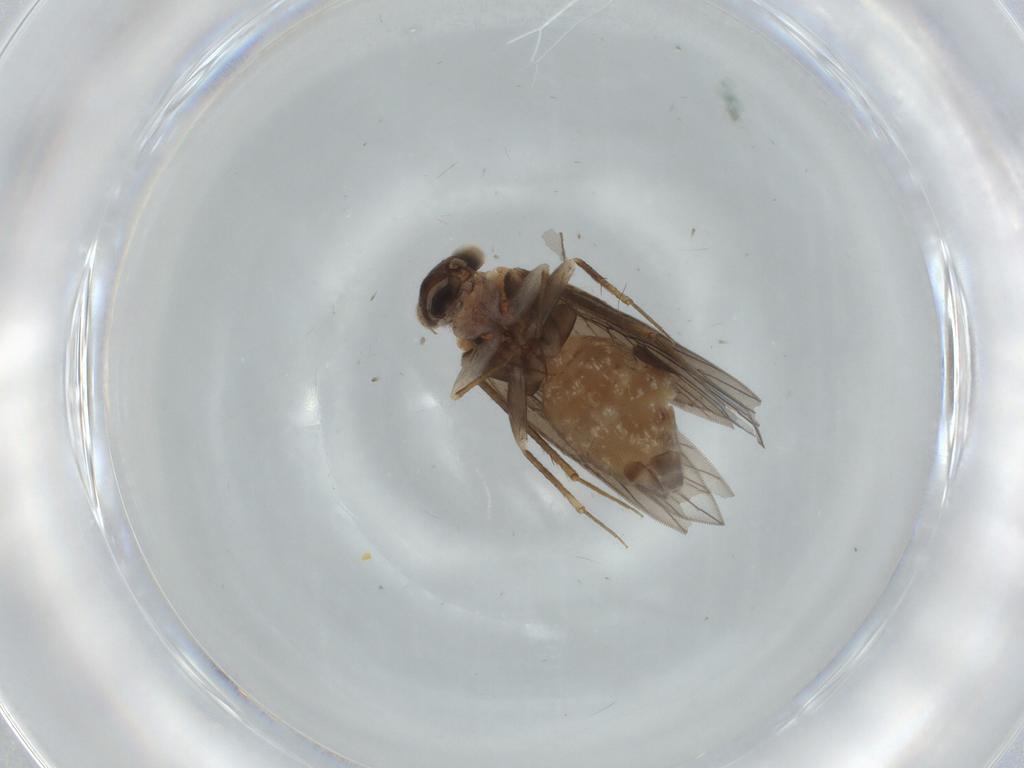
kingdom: Animalia
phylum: Arthropoda
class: Insecta
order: Psocodea
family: Lepidopsocidae
